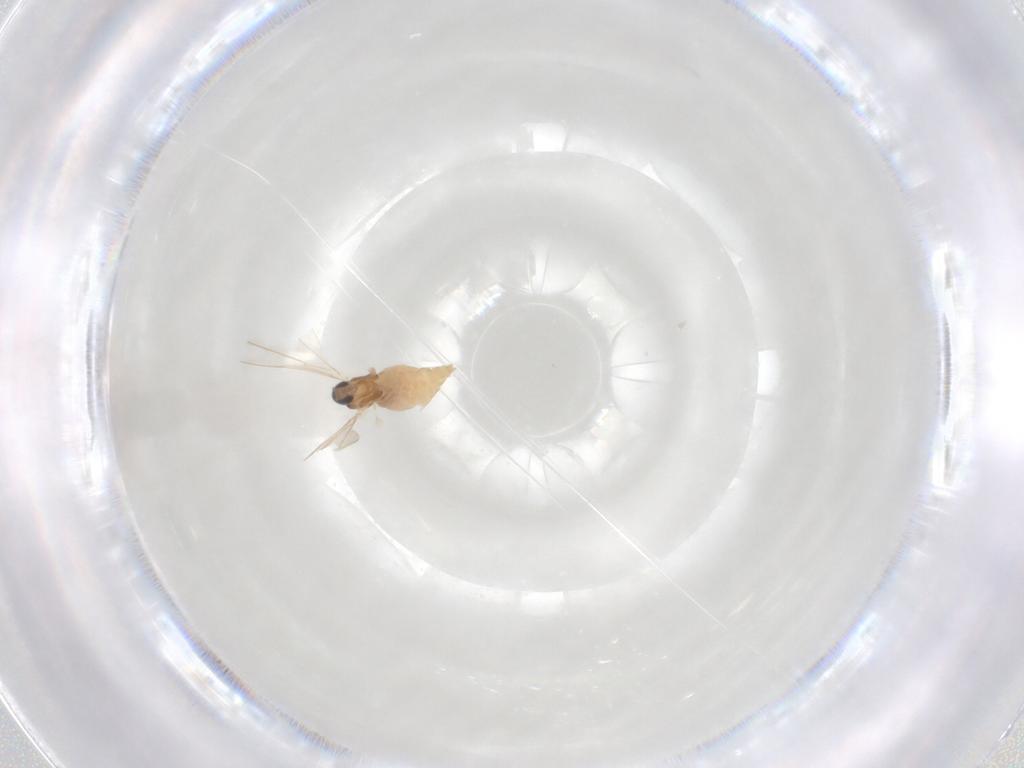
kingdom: Animalia
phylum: Arthropoda
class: Insecta
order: Diptera
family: Cecidomyiidae
